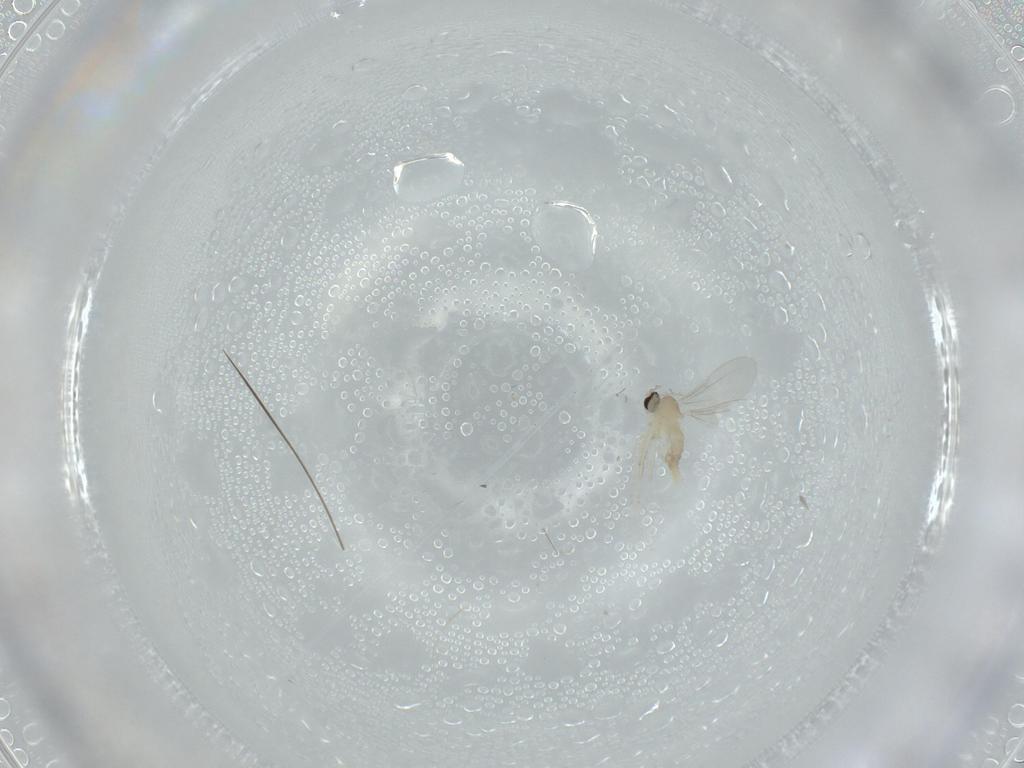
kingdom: Animalia
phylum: Arthropoda
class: Insecta
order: Diptera
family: Cecidomyiidae
